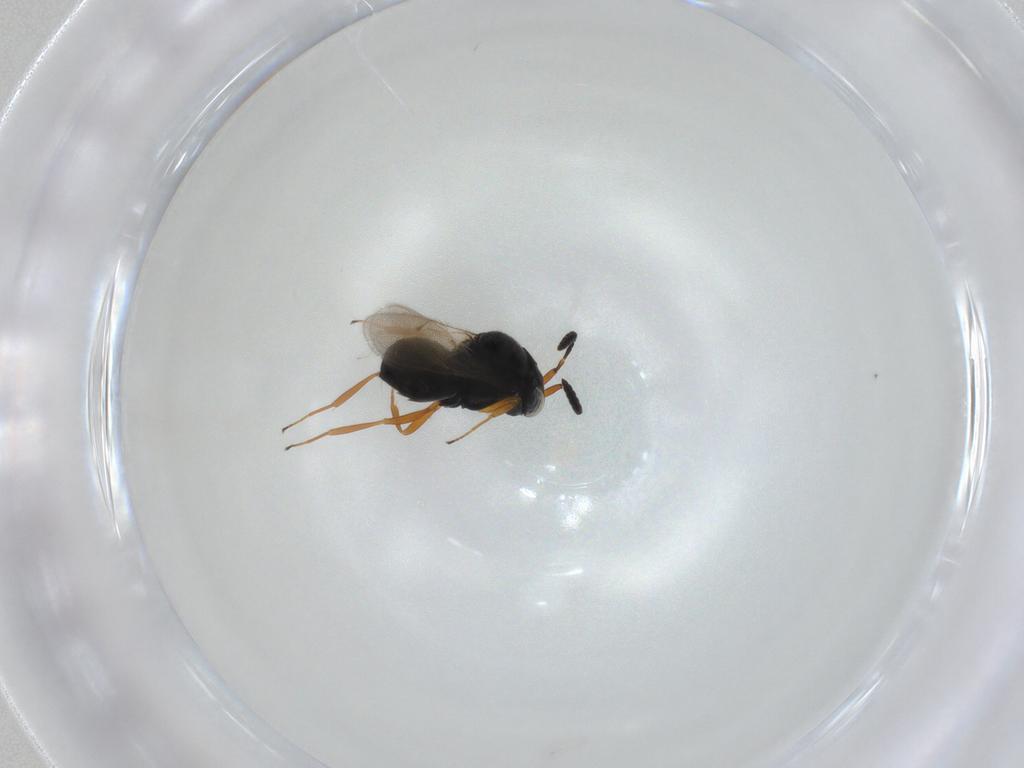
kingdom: Animalia
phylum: Arthropoda
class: Insecta
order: Hymenoptera
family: Scelionidae
